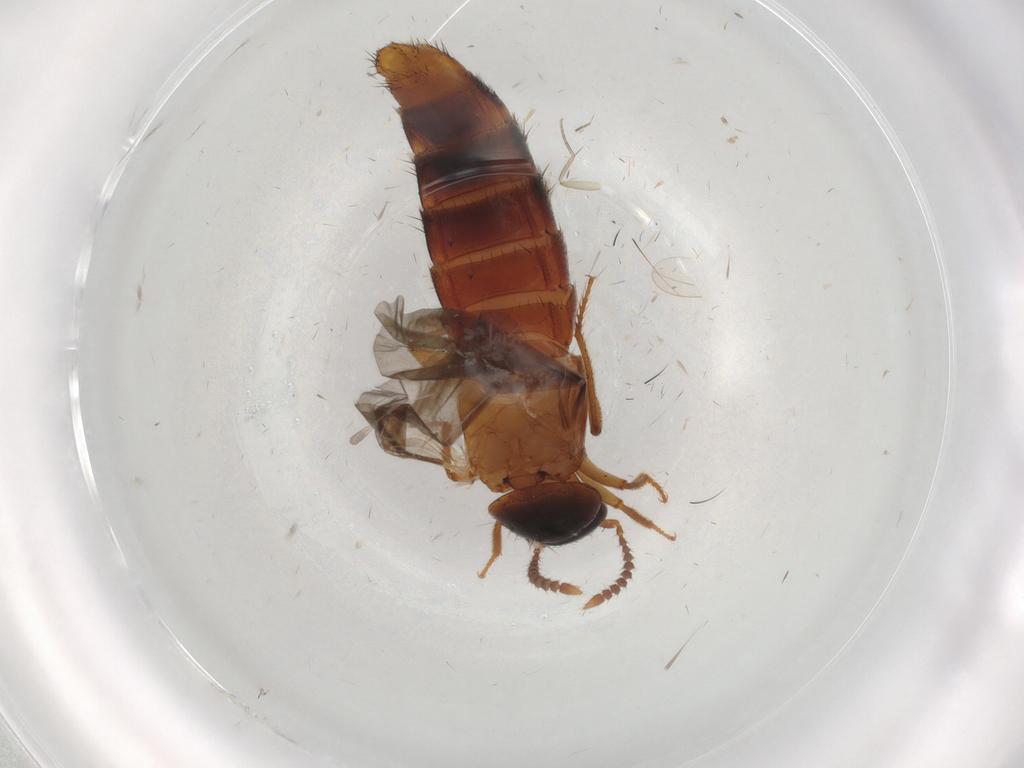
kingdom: Animalia
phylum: Arthropoda
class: Insecta
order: Coleoptera
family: Staphylinidae
